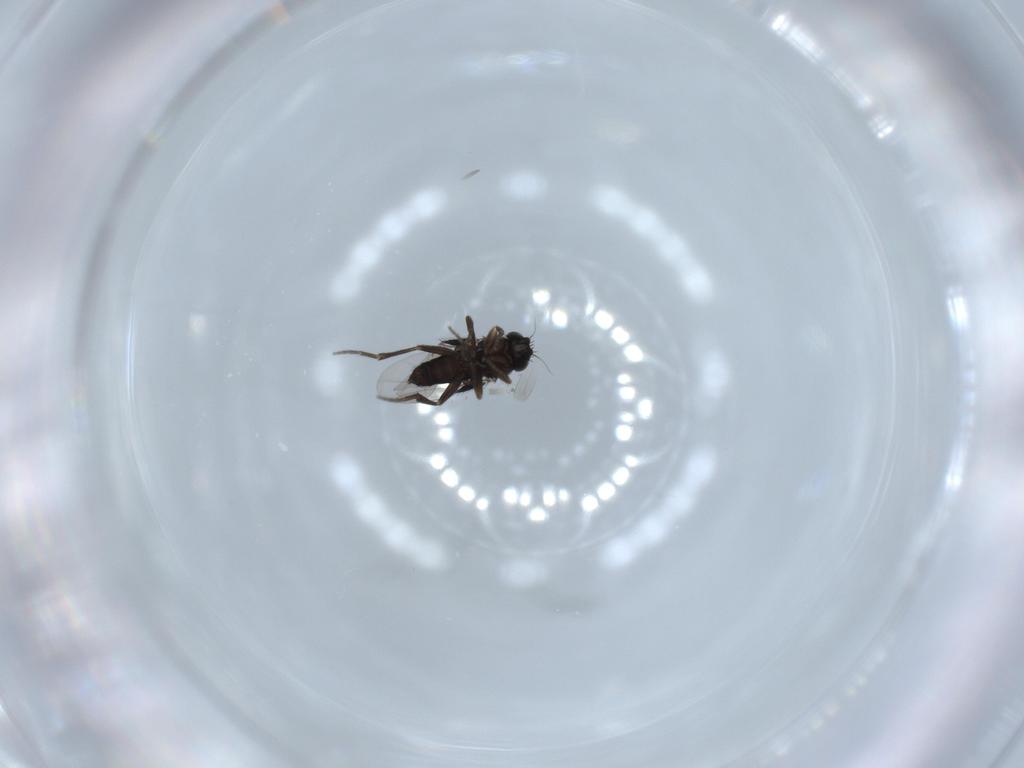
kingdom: Animalia
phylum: Arthropoda
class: Insecta
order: Diptera
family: Phoridae
